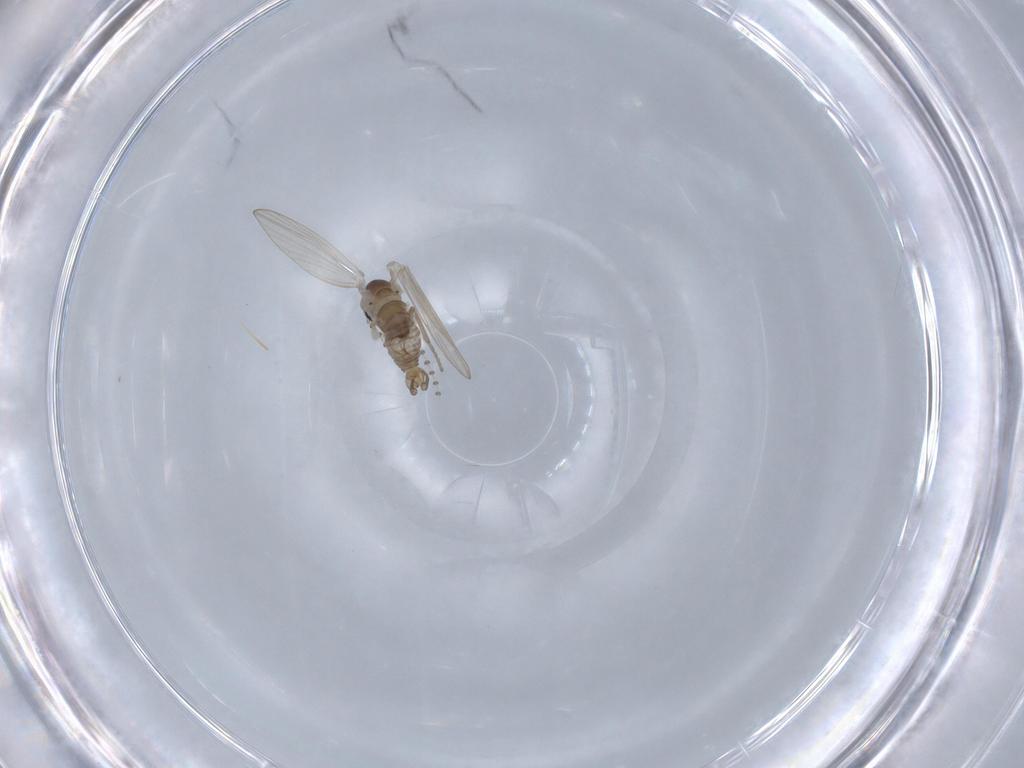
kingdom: Animalia
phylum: Arthropoda
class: Insecta
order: Diptera
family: Psychodidae
